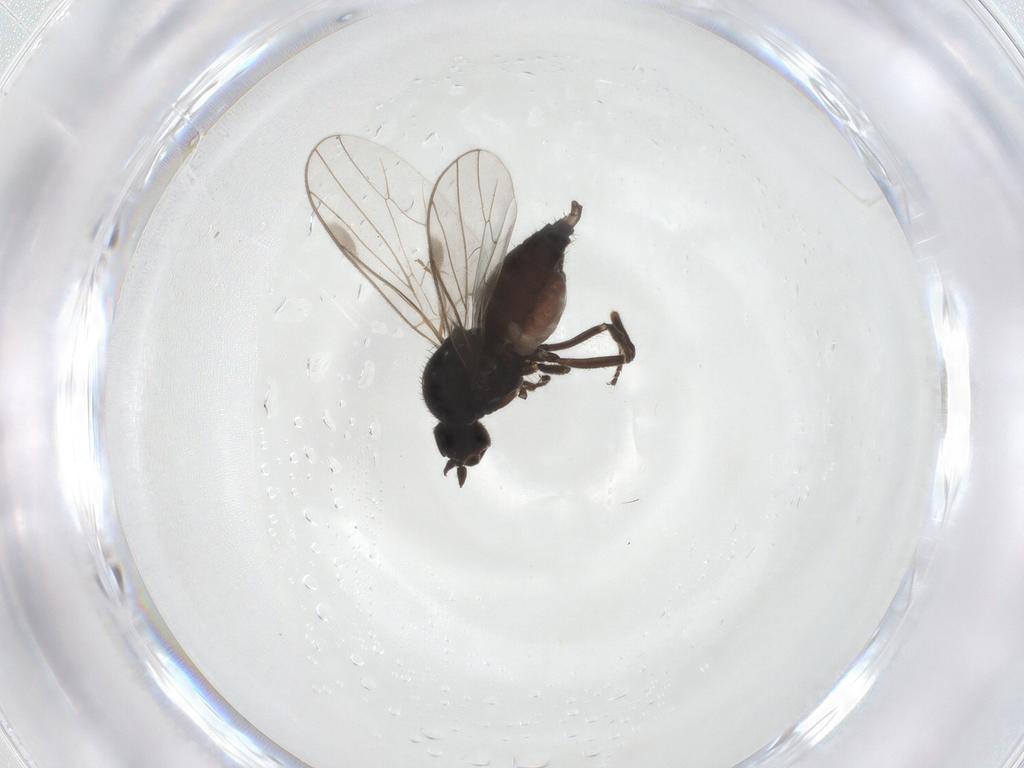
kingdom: Animalia
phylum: Arthropoda
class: Insecta
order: Diptera
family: Hybotidae
